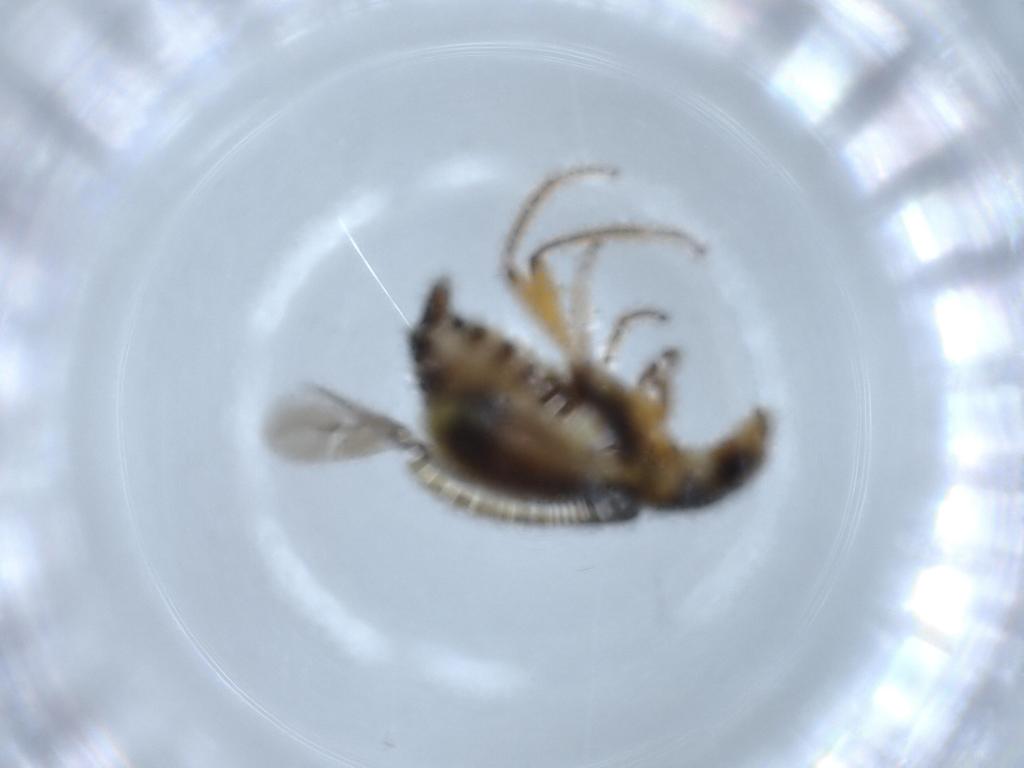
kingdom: Animalia
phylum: Arthropoda
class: Insecta
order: Coleoptera
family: Melyridae
